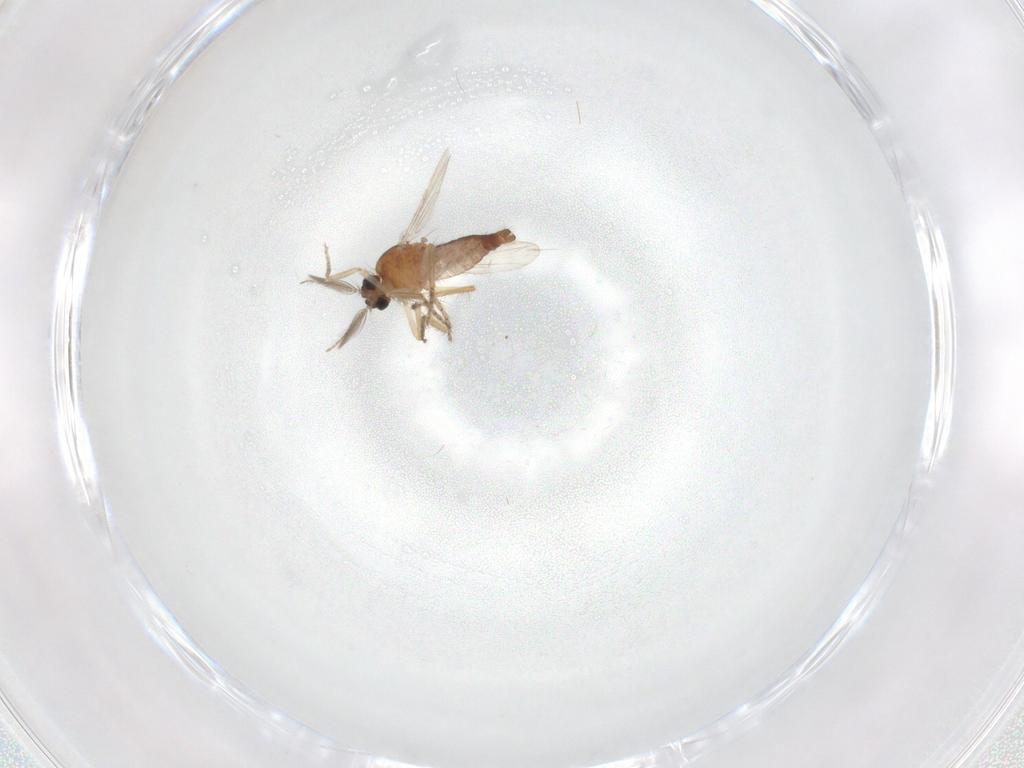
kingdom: Animalia
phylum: Arthropoda
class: Insecta
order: Diptera
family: Ceratopogonidae
